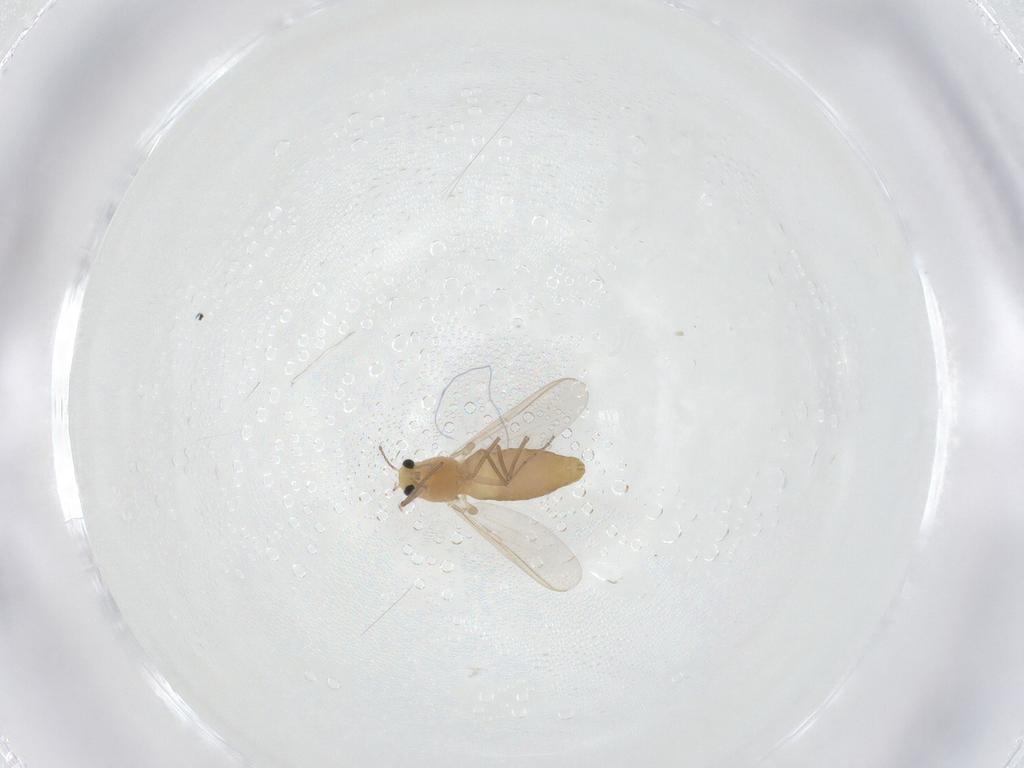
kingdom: Animalia
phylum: Arthropoda
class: Insecta
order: Diptera
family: Chironomidae
